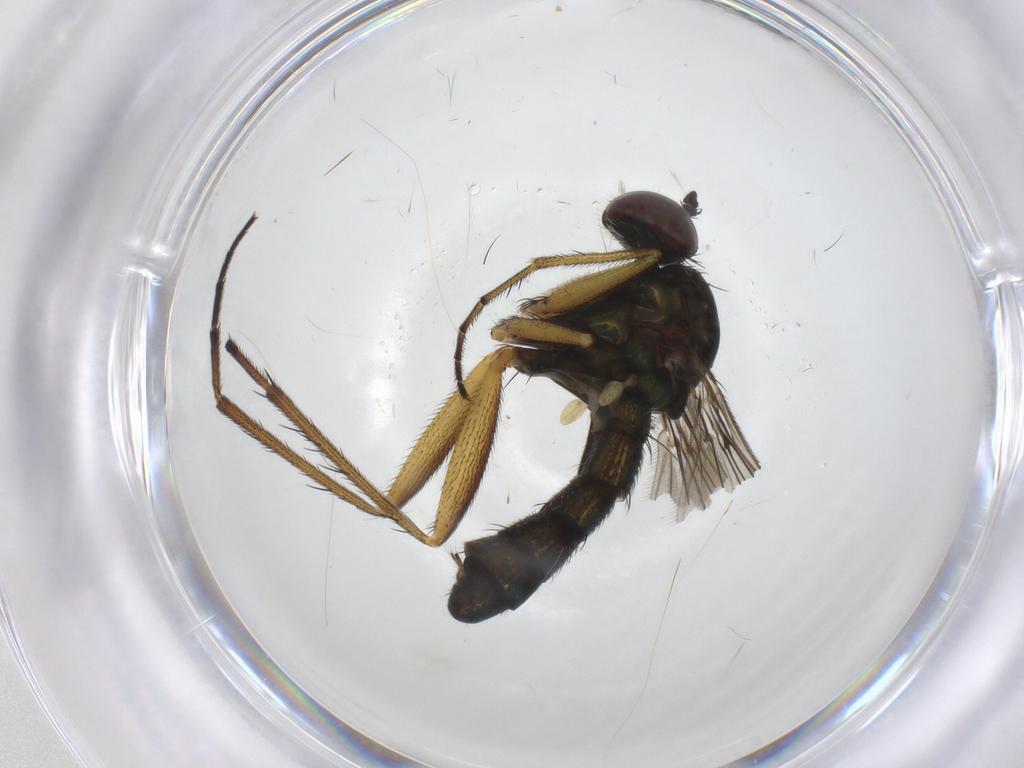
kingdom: Animalia
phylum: Arthropoda
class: Insecta
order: Diptera
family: Dolichopodidae
